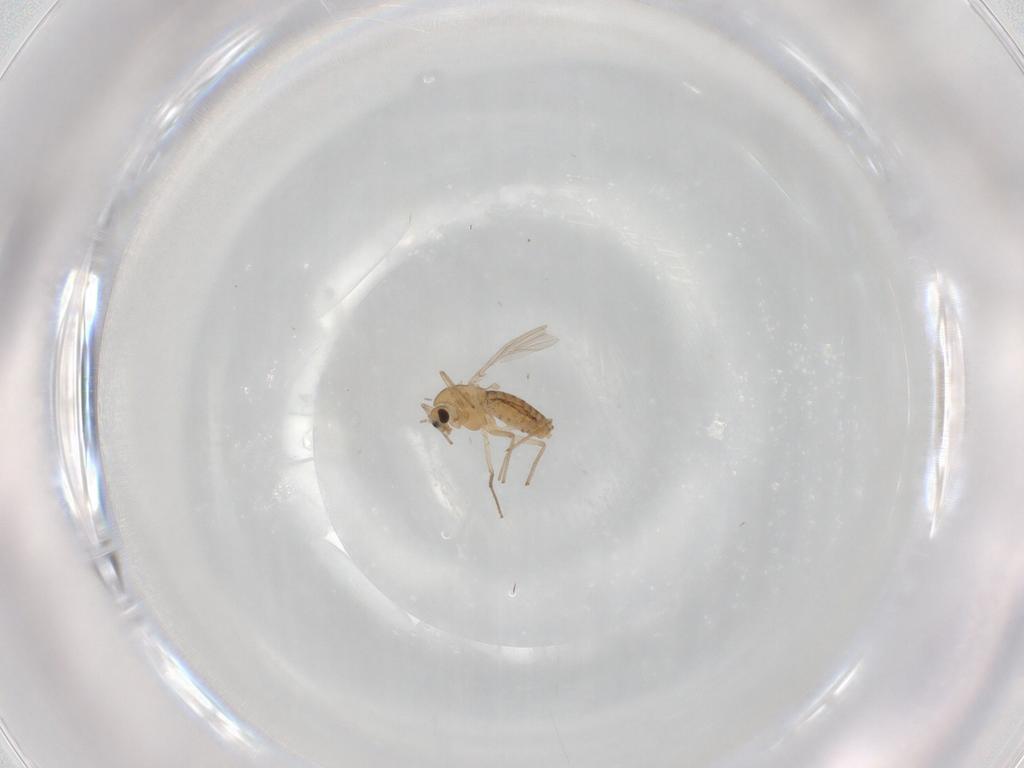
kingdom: Animalia
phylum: Arthropoda
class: Insecta
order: Diptera
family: Chironomidae
